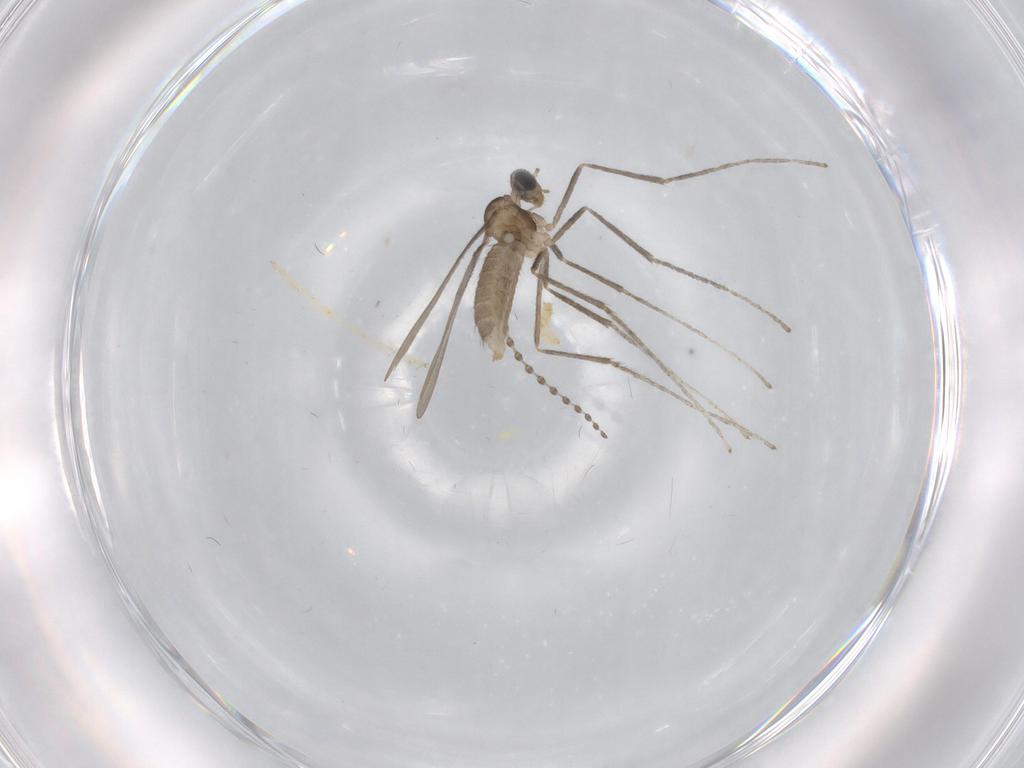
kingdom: Animalia
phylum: Arthropoda
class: Insecta
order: Diptera
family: Cecidomyiidae
